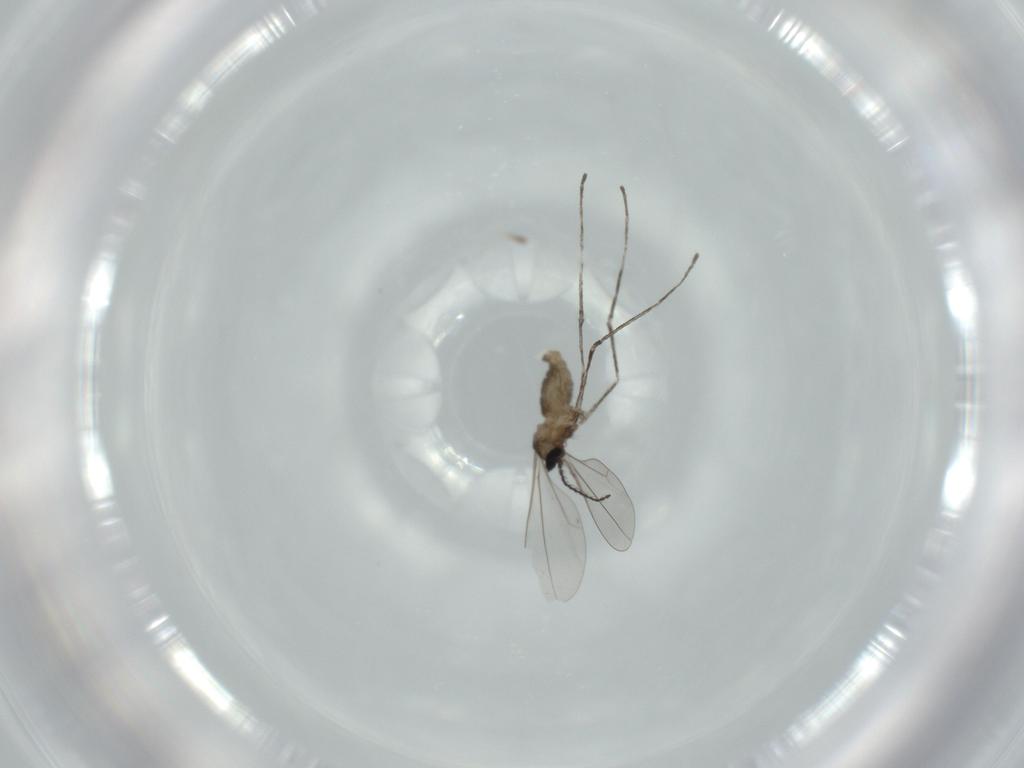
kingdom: Animalia
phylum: Arthropoda
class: Insecta
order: Diptera
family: Cecidomyiidae
